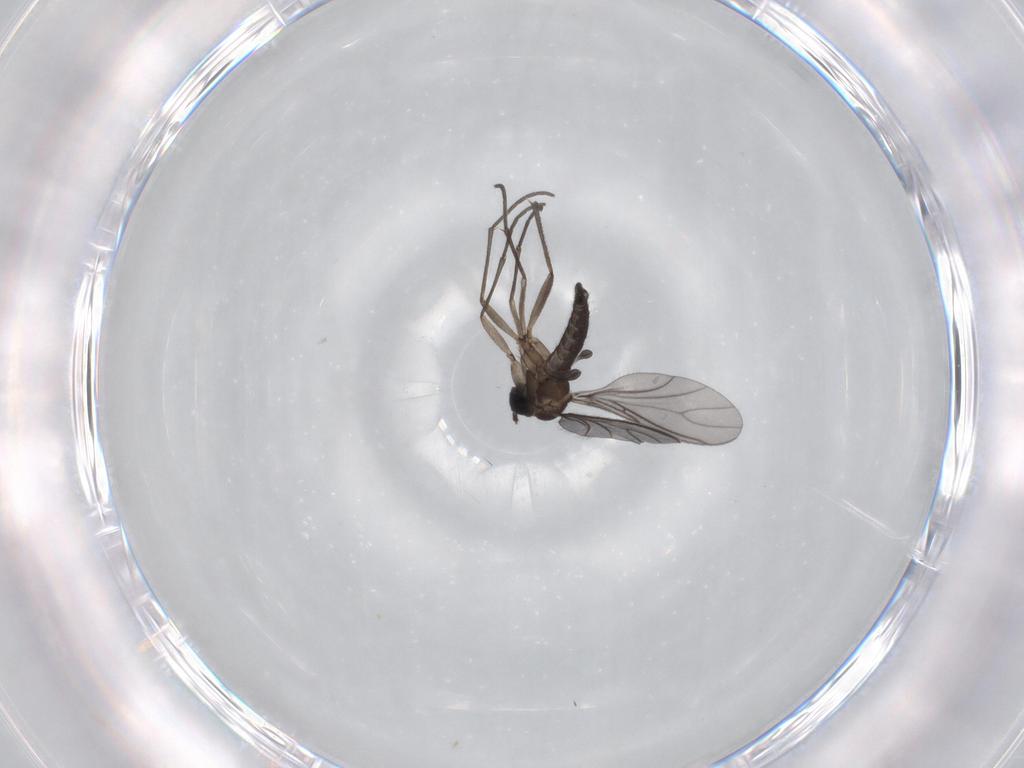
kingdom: Animalia
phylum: Arthropoda
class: Insecta
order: Diptera
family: Sciaridae
